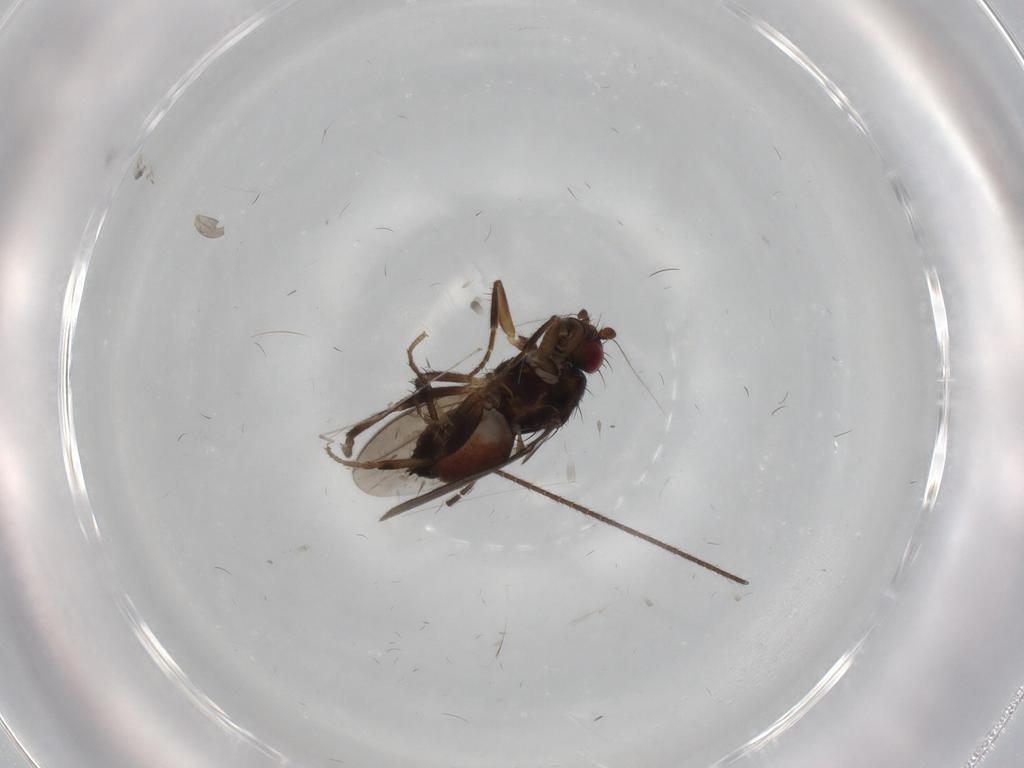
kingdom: Animalia
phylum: Arthropoda
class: Insecta
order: Diptera
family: Sciaridae
